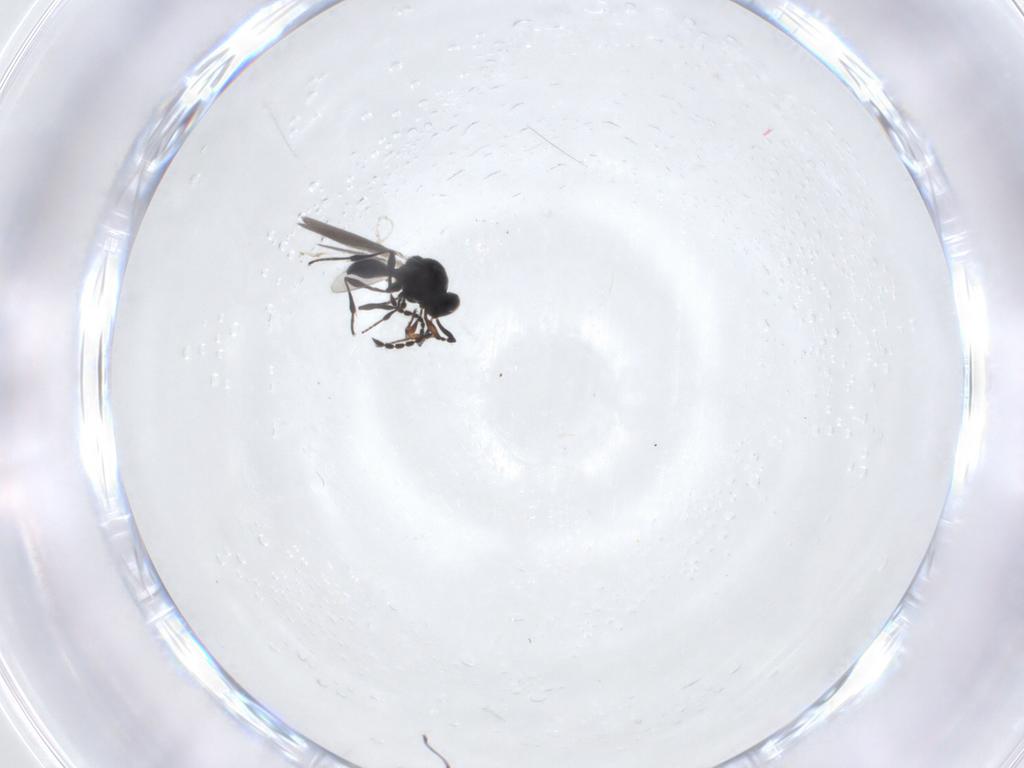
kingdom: Animalia
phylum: Arthropoda
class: Insecta
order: Hymenoptera
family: Platygastridae
